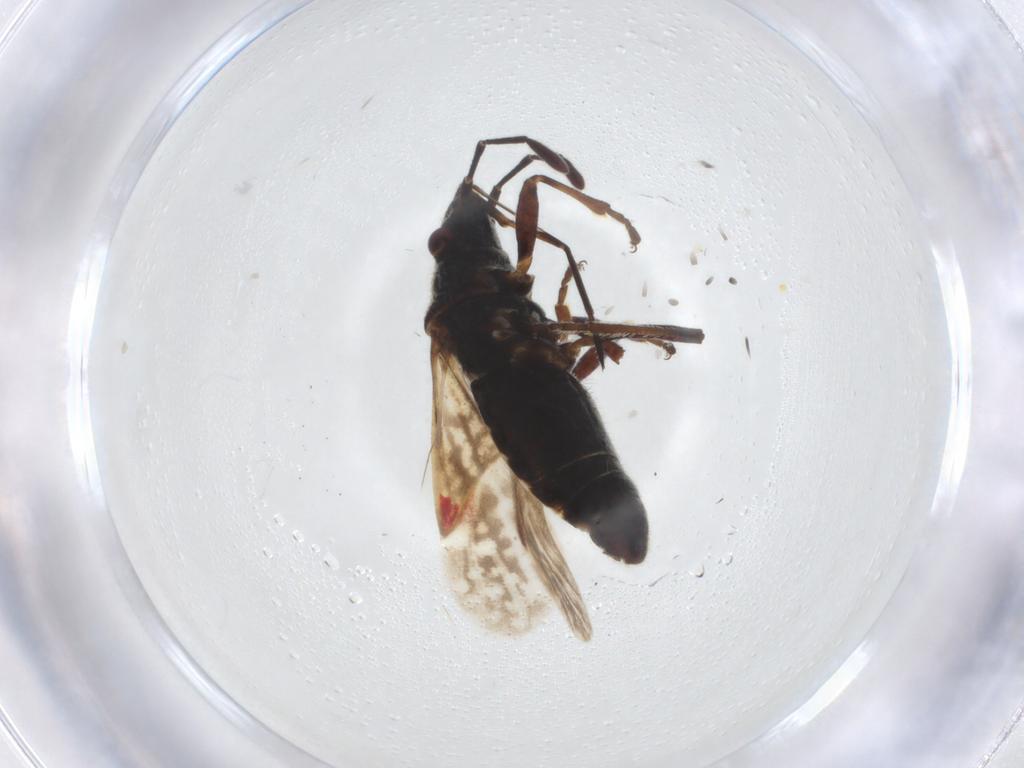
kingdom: Animalia
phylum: Arthropoda
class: Insecta
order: Hemiptera
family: Lygaeidae
